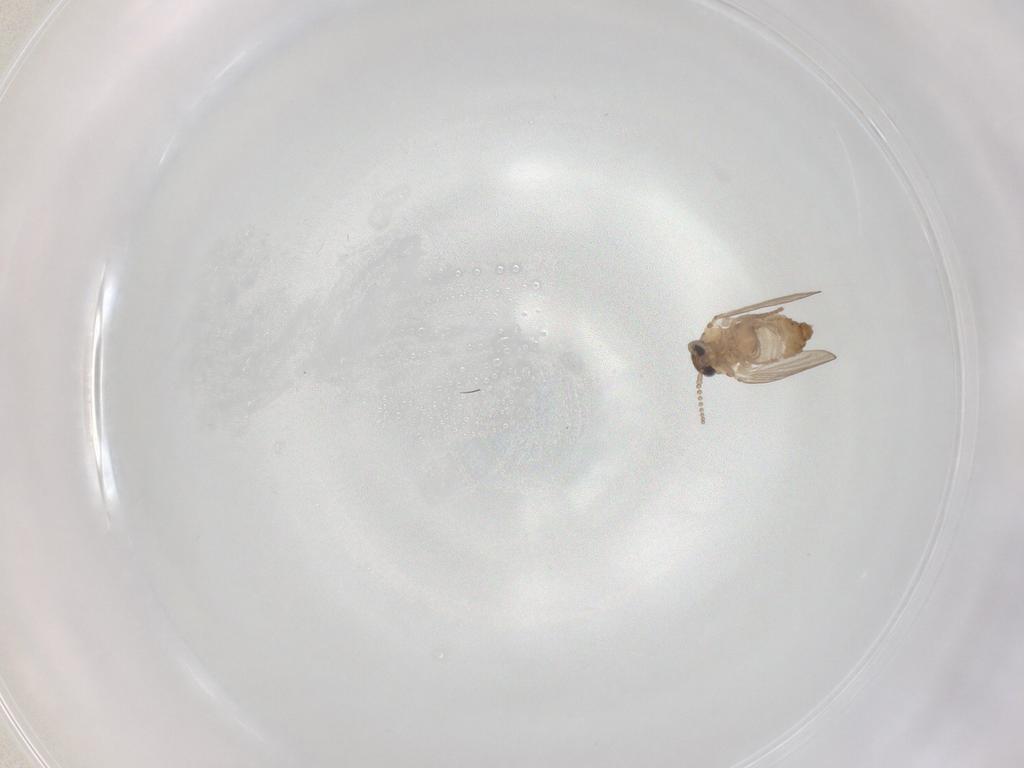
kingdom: Animalia
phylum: Arthropoda
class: Insecta
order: Diptera
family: Psychodidae
